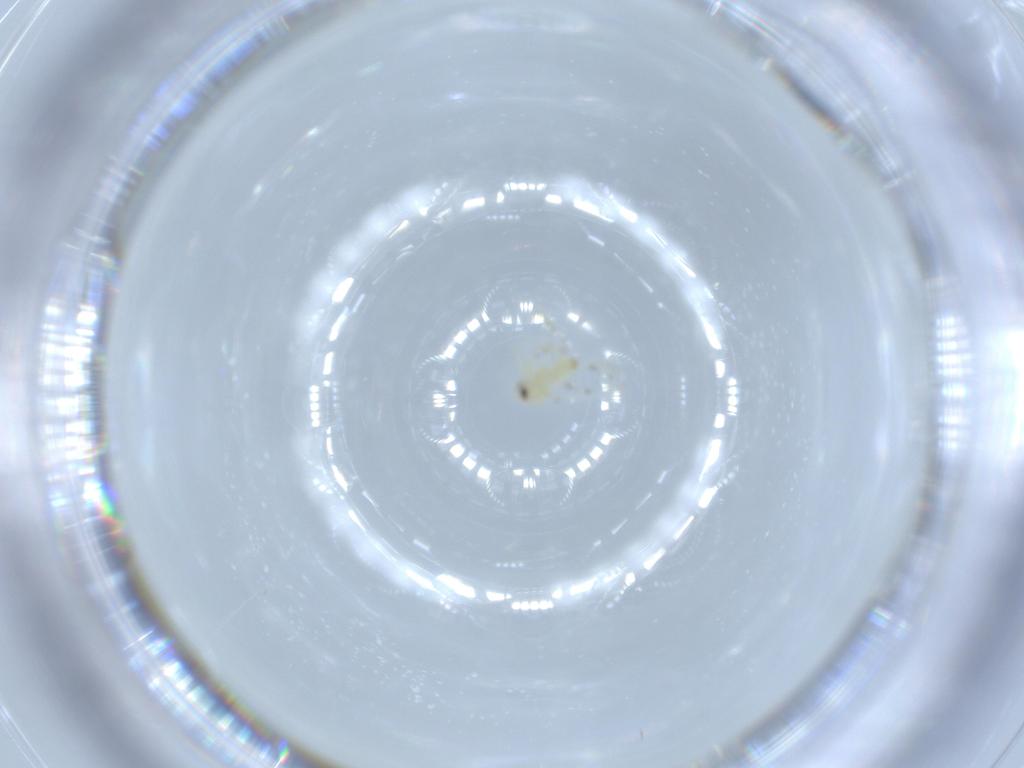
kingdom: Animalia
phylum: Arthropoda
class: Insecta
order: Hemiptera
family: Aleyrodidae
